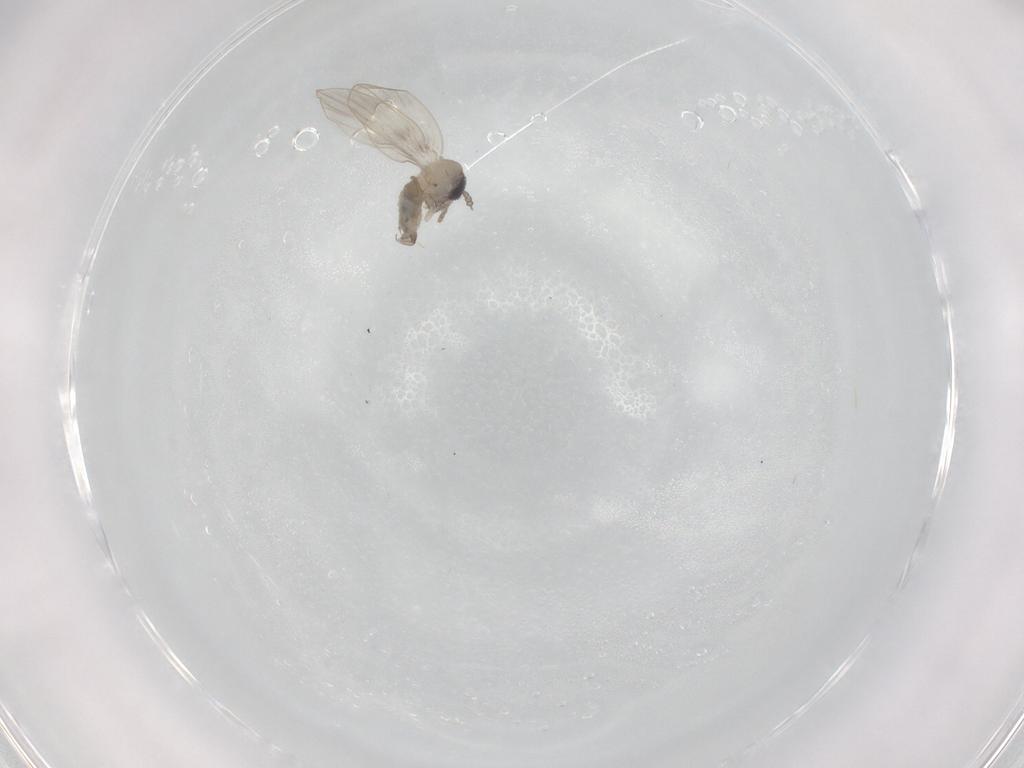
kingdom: Animalia
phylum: Arthropoda
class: Insecta
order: Diptera
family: Psychodidae
